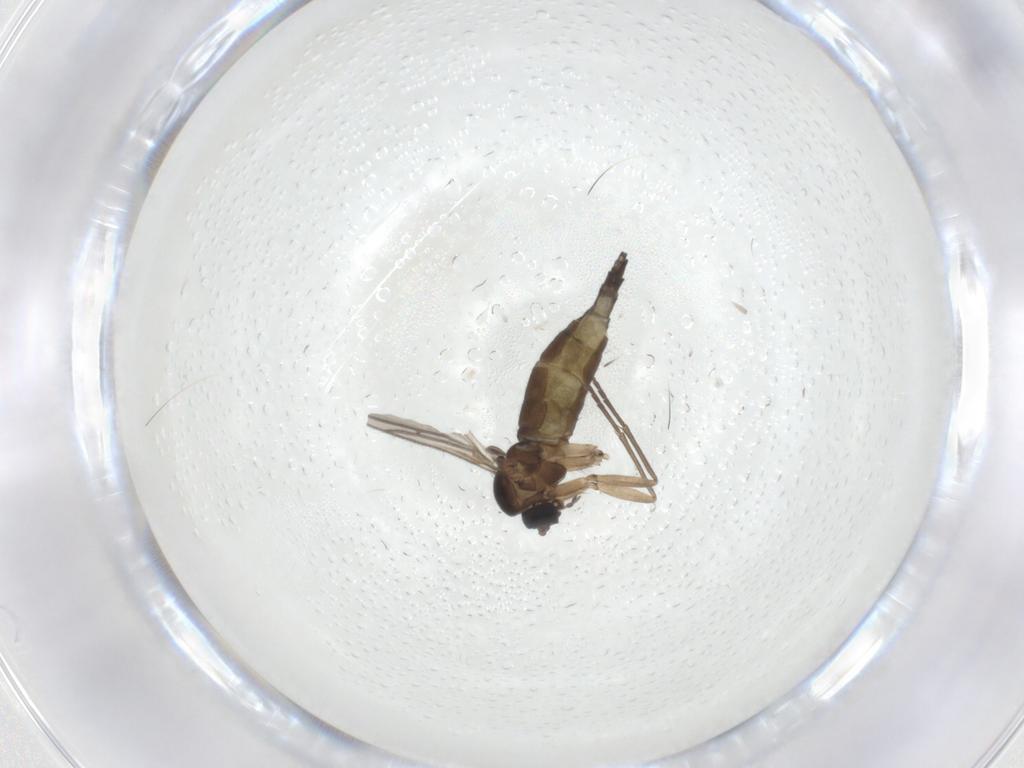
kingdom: Animalia
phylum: Arthropoda
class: Insecta
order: Diptera
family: Sciaridae
